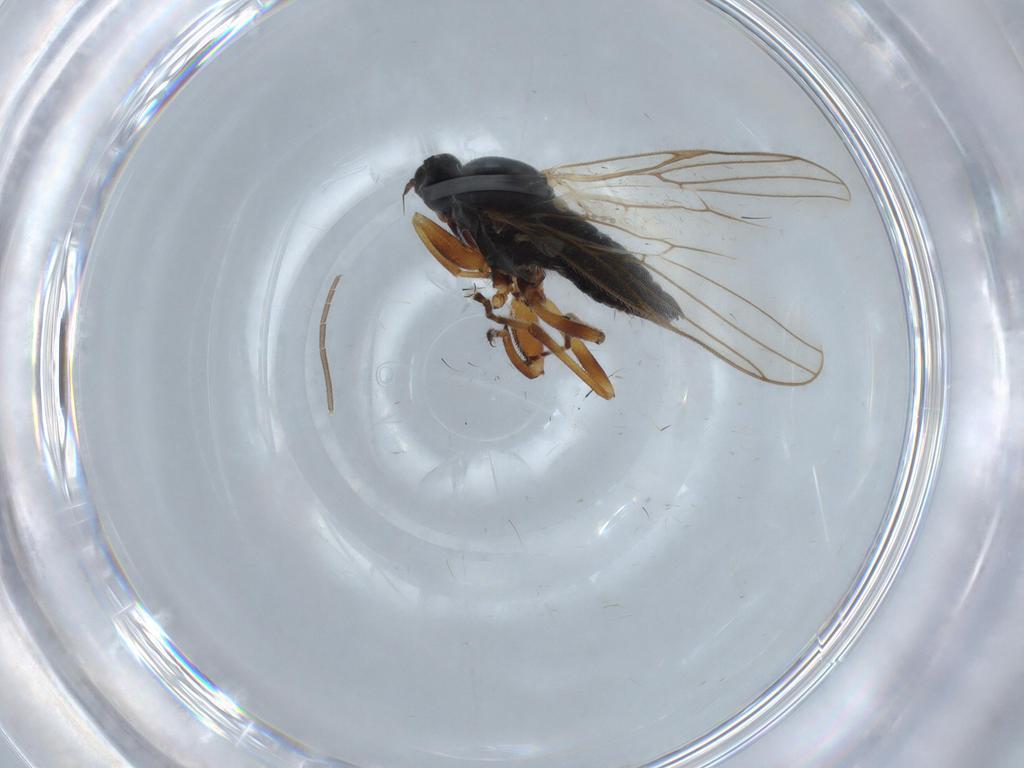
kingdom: Animalia
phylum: Arthropoda
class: Insecta
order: Diptera
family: Hybotidae
